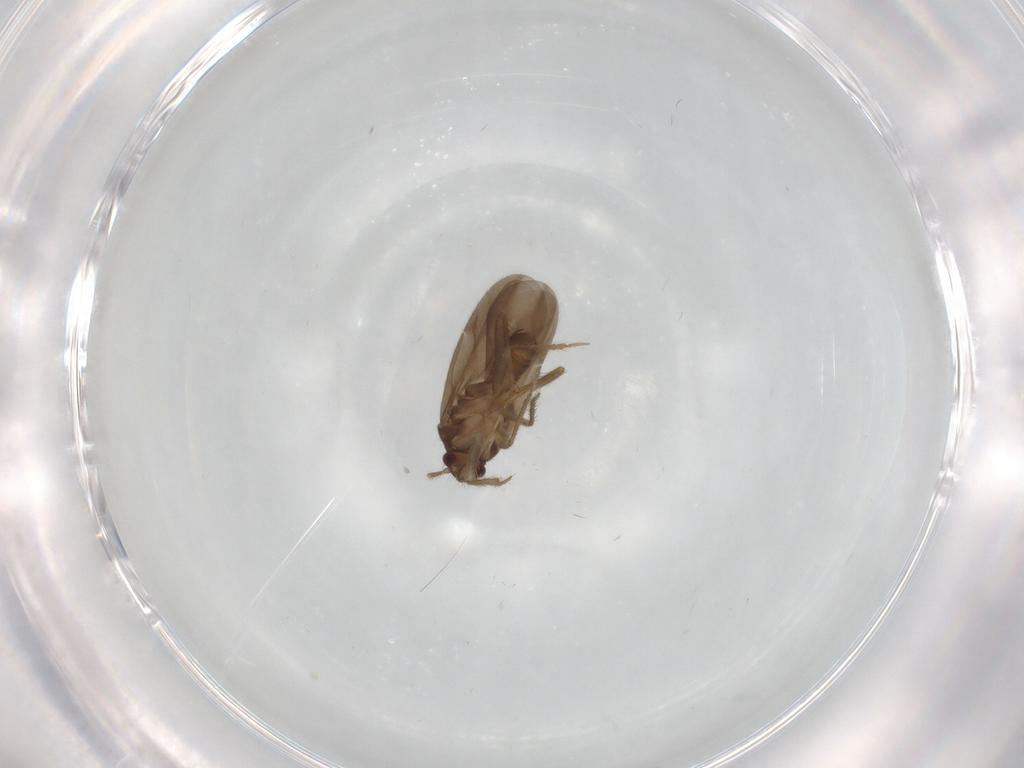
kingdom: Animalia
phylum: Arthropoda
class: Insecta
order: Hemiptera
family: Ceratocombidae
